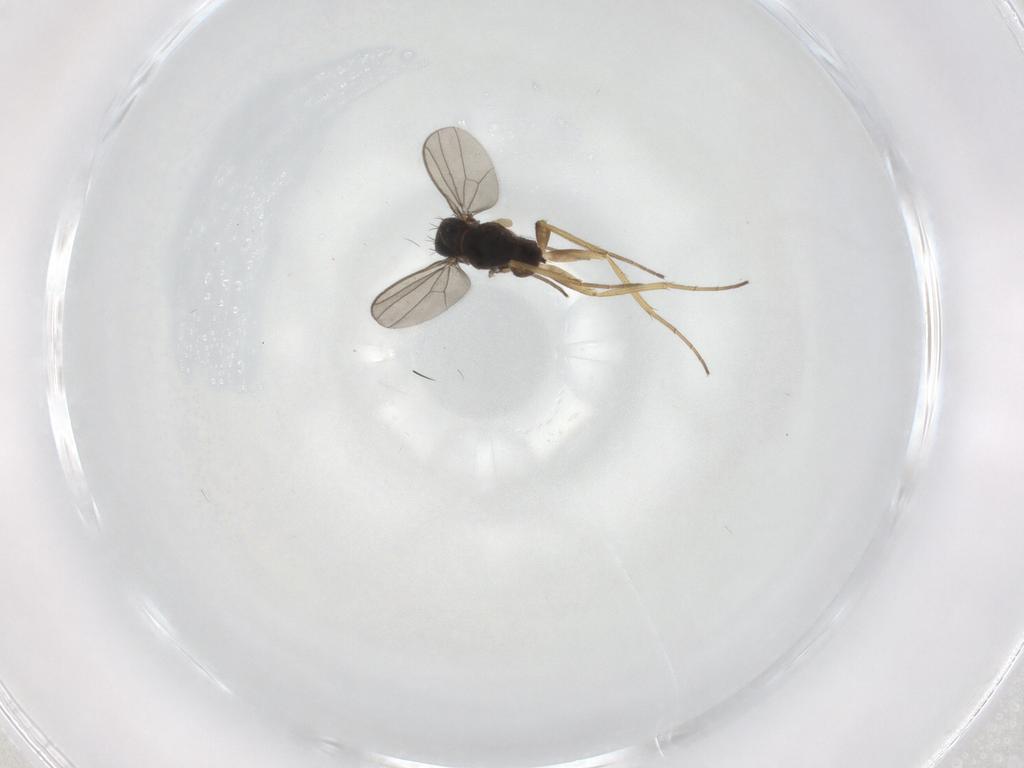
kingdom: Animalia
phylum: Arthropoda
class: Insecta
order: Diptera
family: Dolichopodidae
